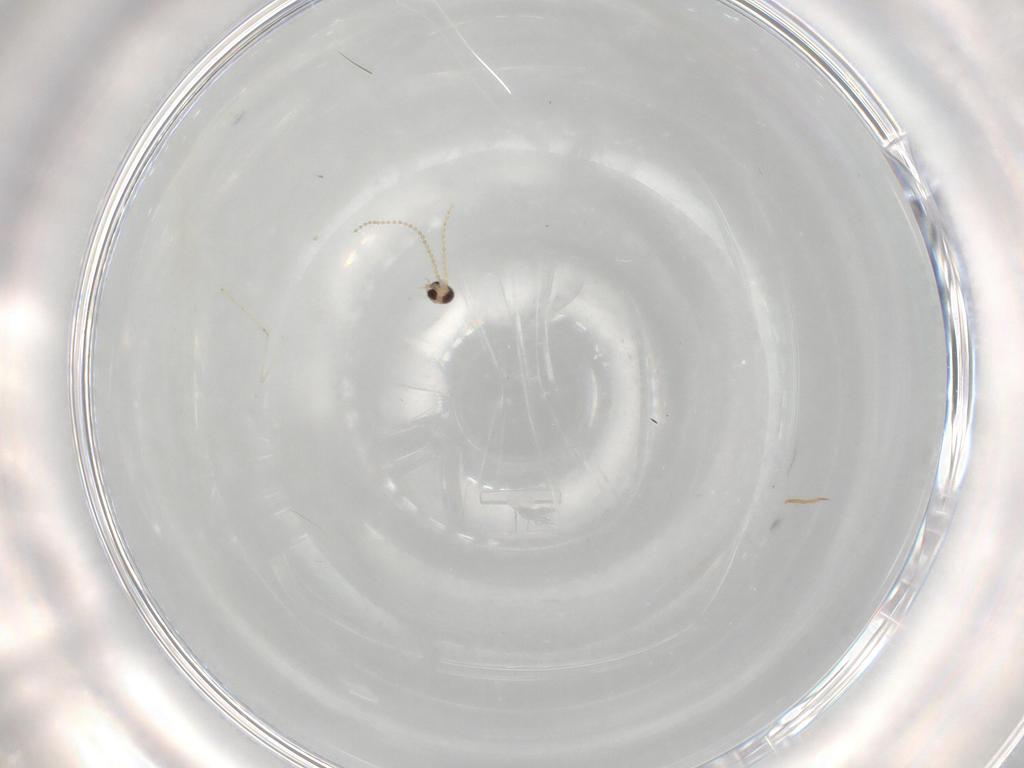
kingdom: Animalia
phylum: Arthropoda
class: Insecta
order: Diptera
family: Cecidomyiidae
